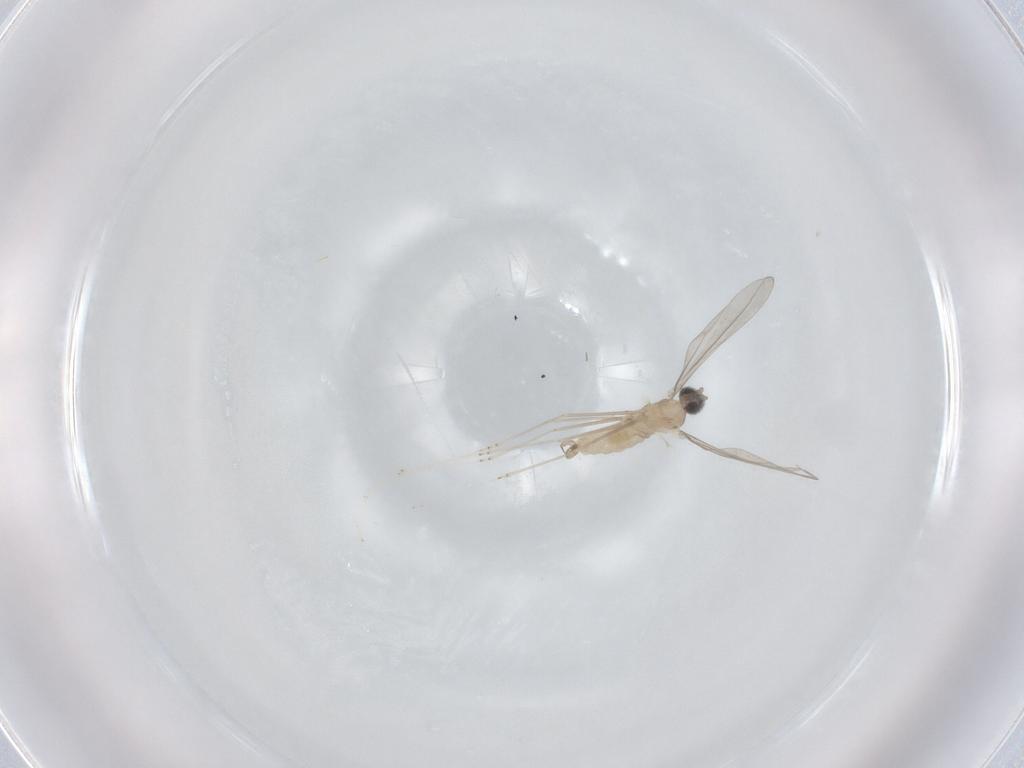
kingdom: Animalia
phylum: Arthropoda
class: Insecta
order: Diptera
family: Cecidomyiidae
